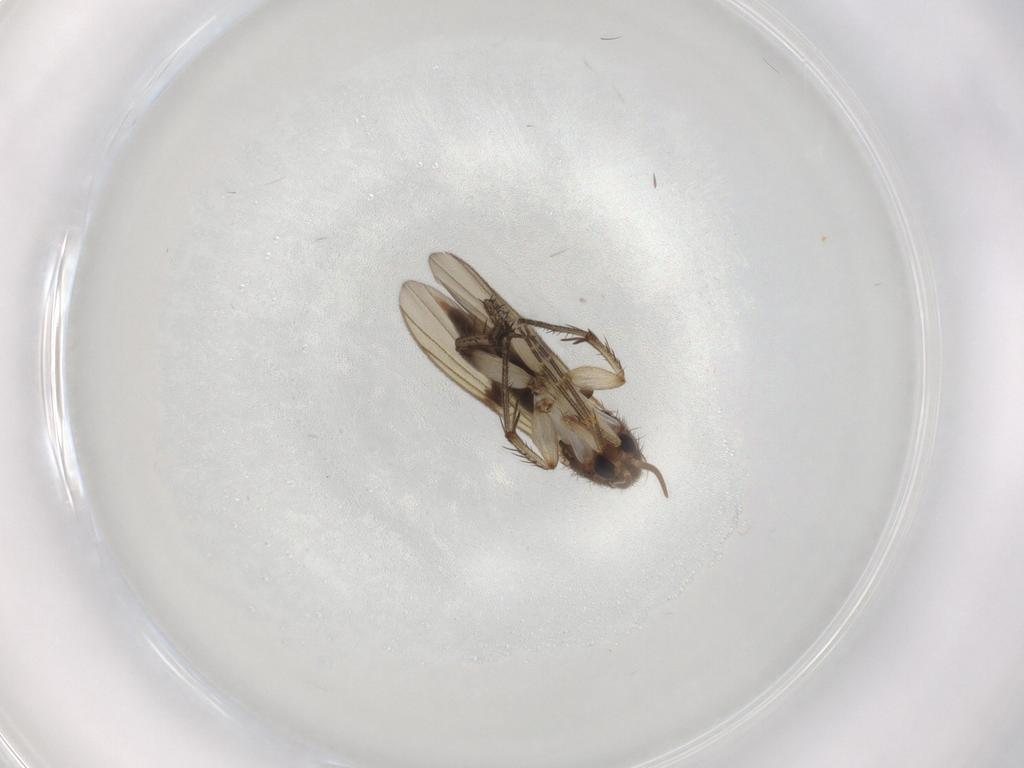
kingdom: Animalia
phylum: Arthropoda
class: Insecta
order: Diptera
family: Mycetophilidae
